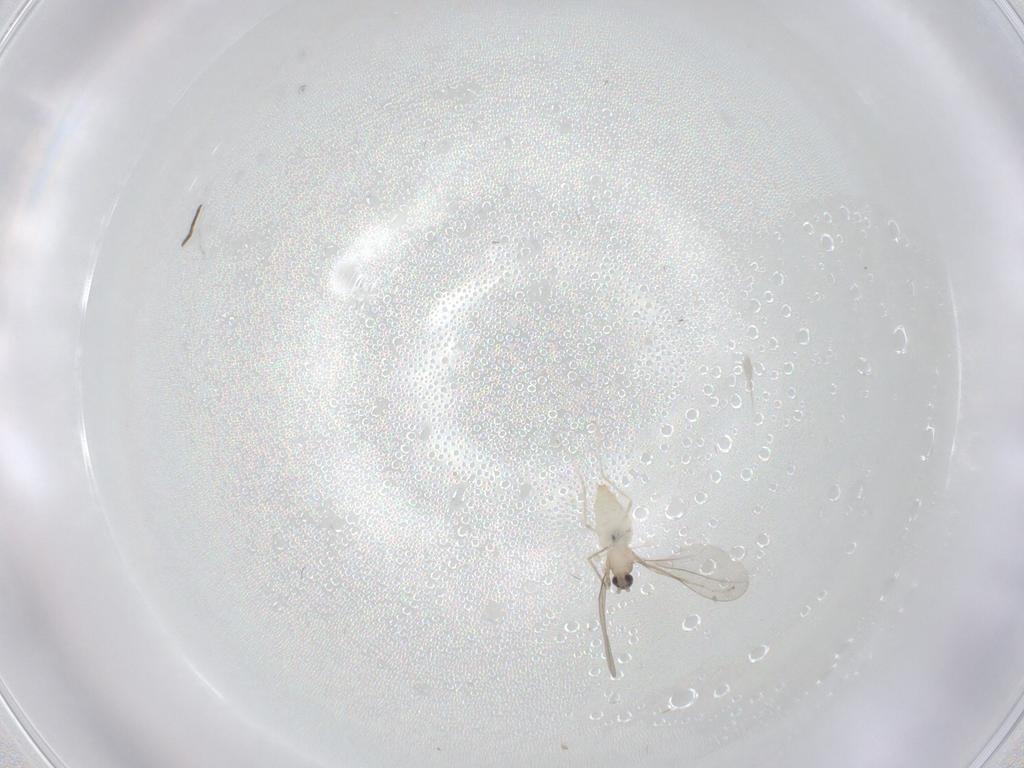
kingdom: Animalia
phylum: Arthropoda
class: Insecta
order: Diptera
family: Cecidomyiidae
